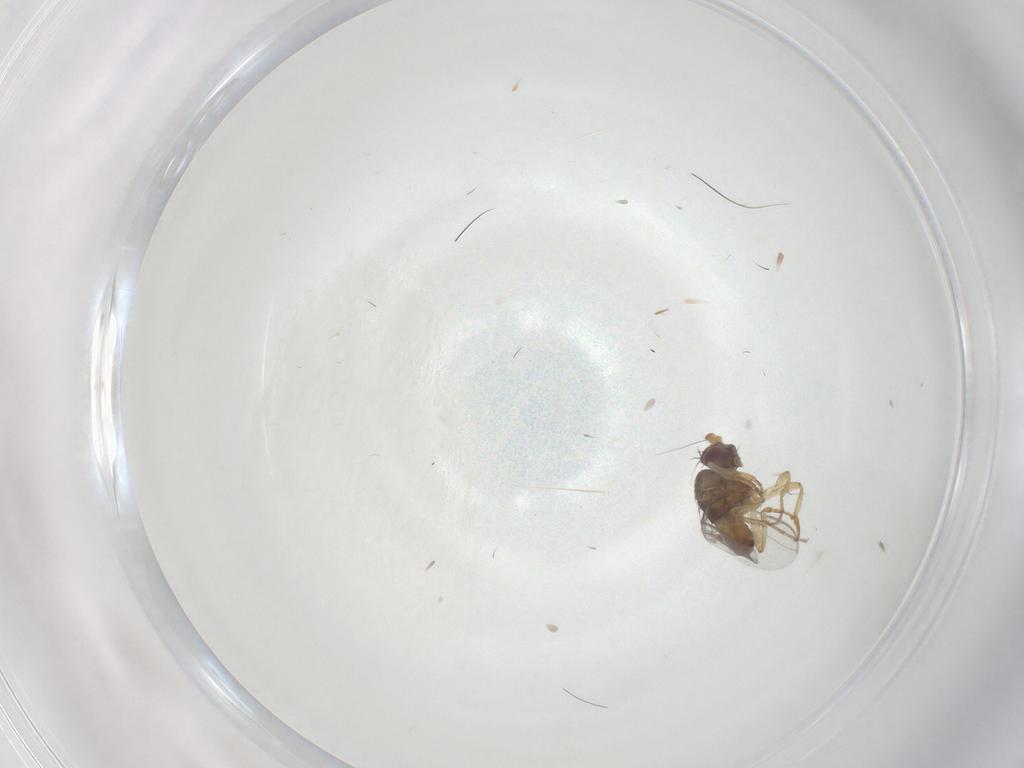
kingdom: Animalia
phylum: Arthropoda
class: Insecta
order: Diptera
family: Sphaeroceridae
